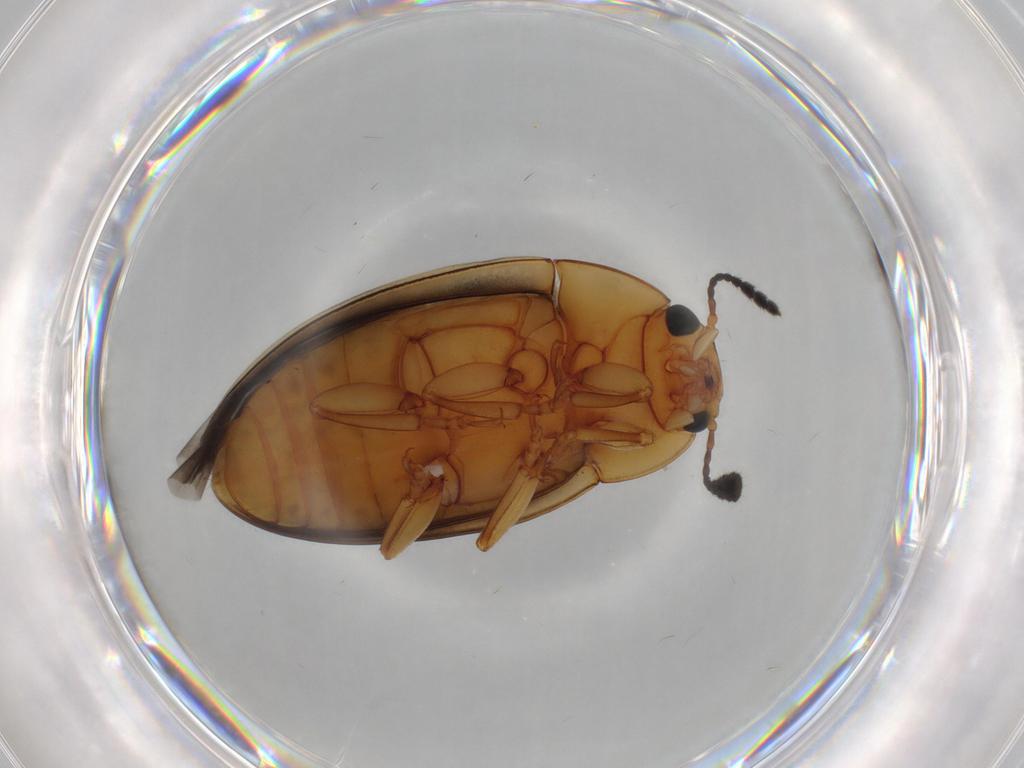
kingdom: Animalia
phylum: Arthropoda
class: Insecta
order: Coleoptera
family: Erotylidae
